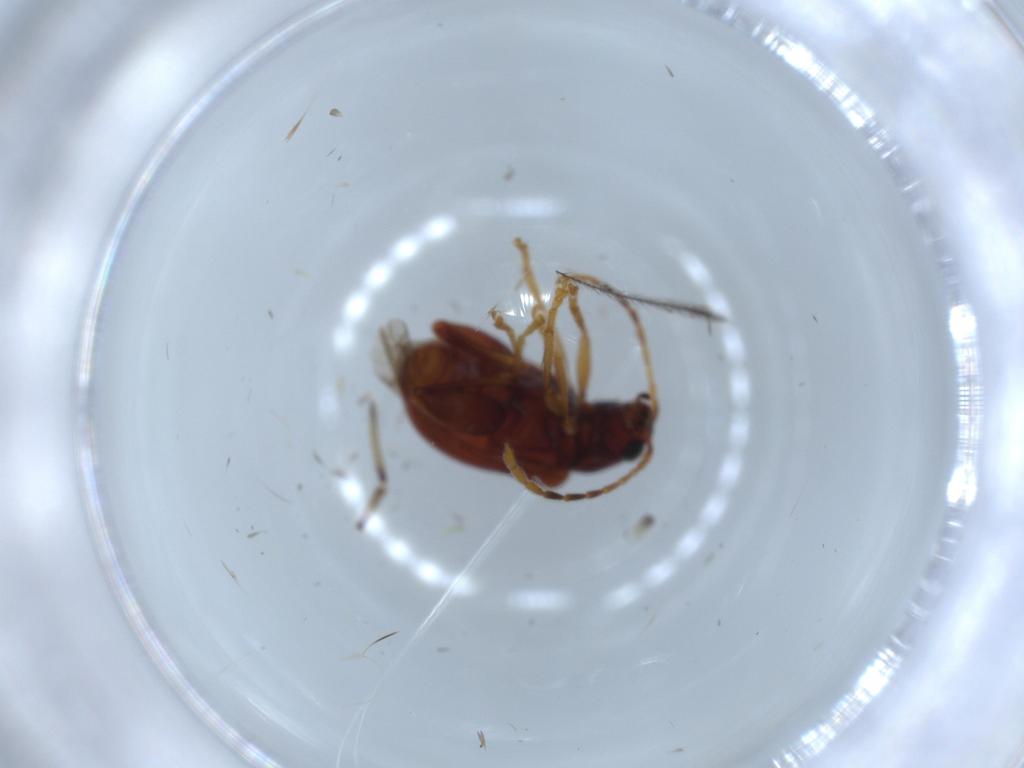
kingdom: Animalia
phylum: Arthropoda
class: Insecta
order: Coleoptera
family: Chrysomelidae
